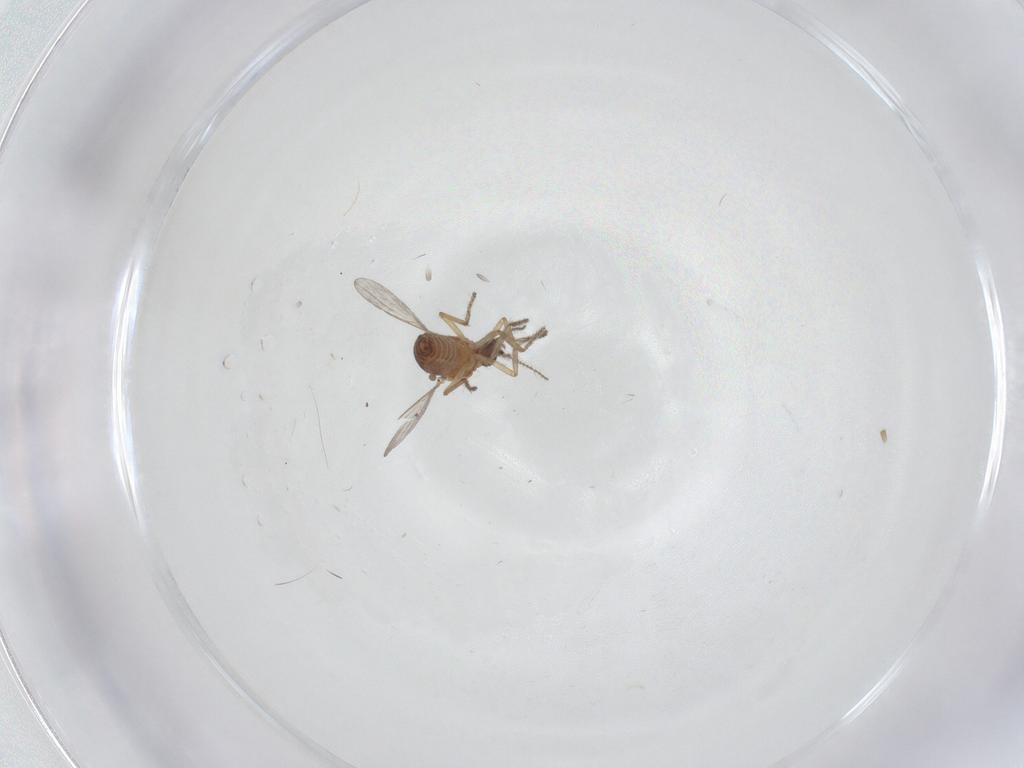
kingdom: Animalia
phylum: Arthropoda
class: Insecta
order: Diptera
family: Ceratopogonidae
